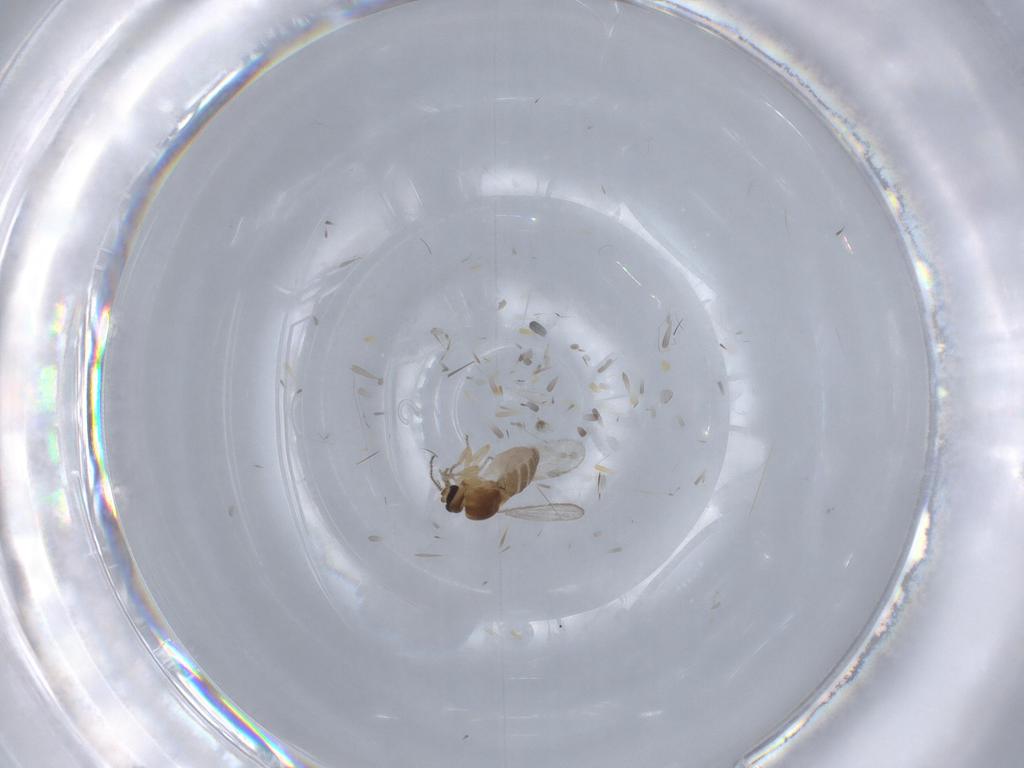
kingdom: Animalia
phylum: Arthropoda
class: Insecta
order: Diptera
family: Ceratopogonidae
